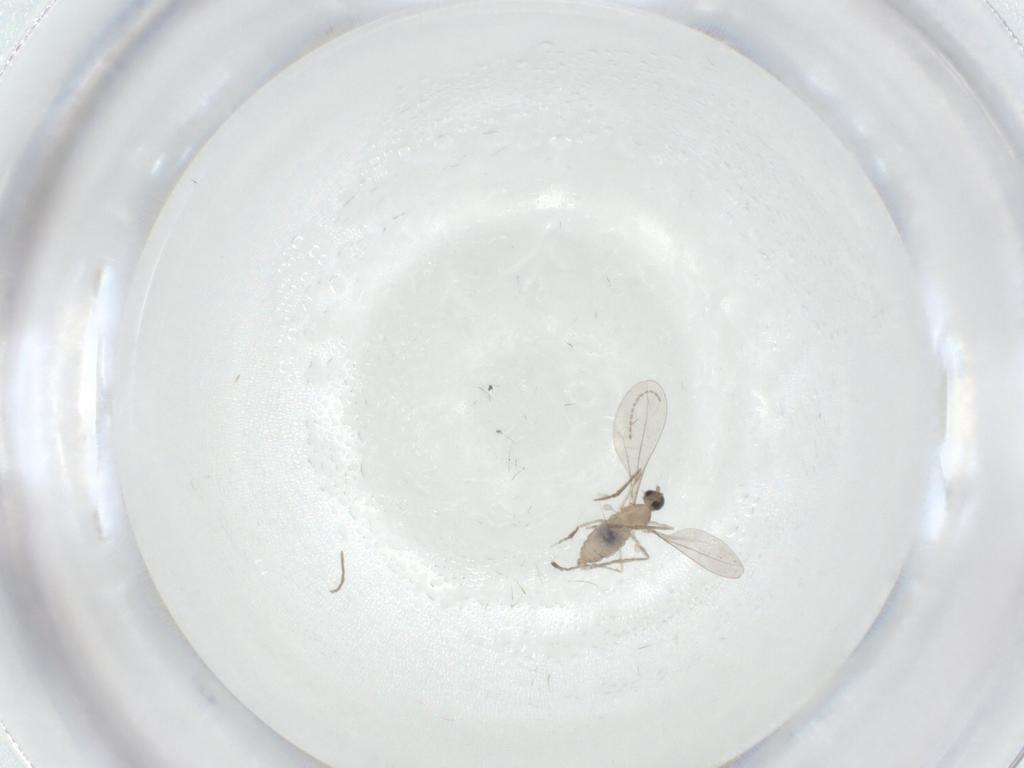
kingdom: Animalia
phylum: Arthropoda
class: Insecta
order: Diptera
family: Cecidomyiidae
